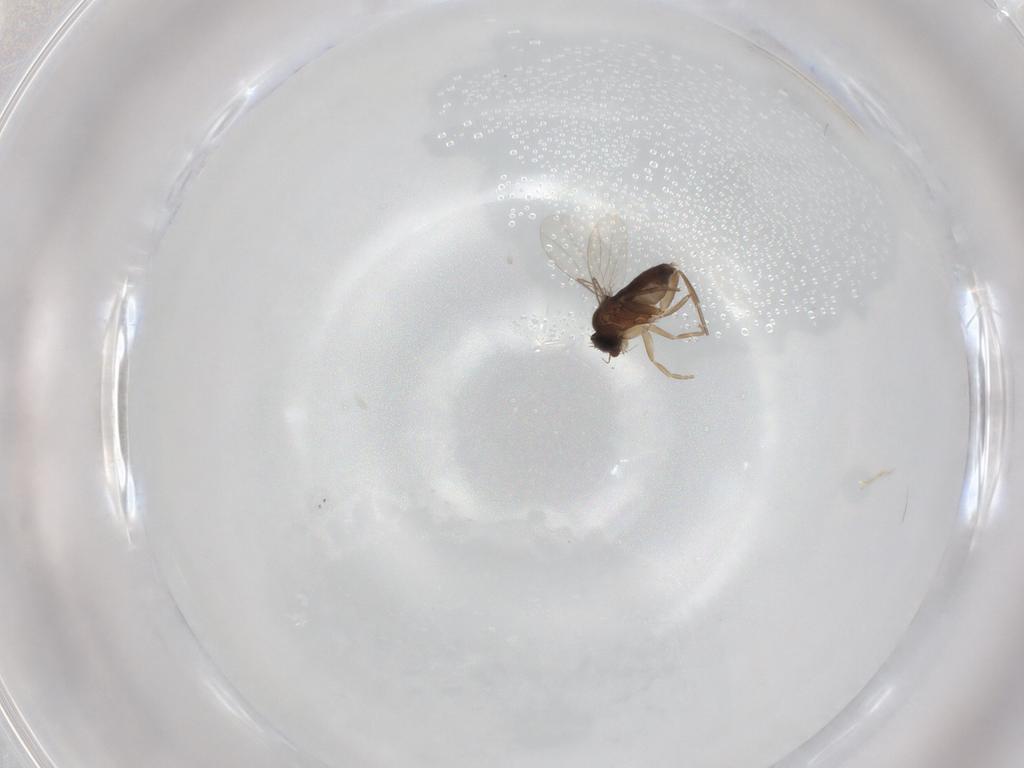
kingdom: Animalia
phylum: Arthropoda
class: Insecta
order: Diptera
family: Phoridae
